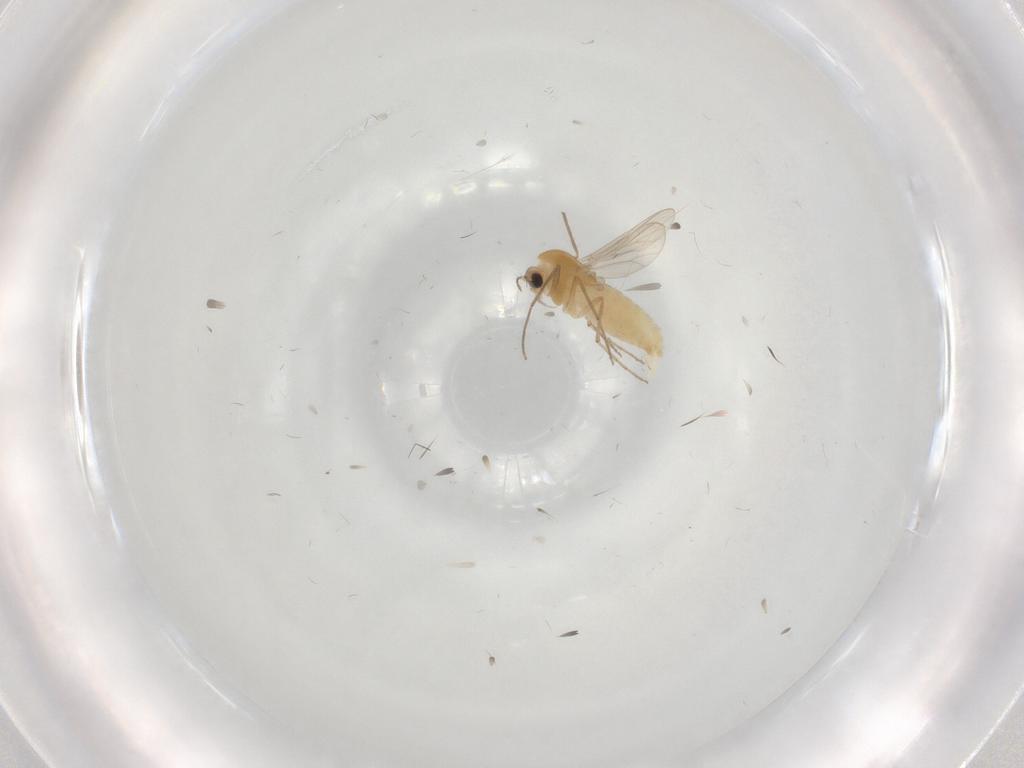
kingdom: Animalia
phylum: Arthropoda
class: Insecta
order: Diptera
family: Chironomidae
